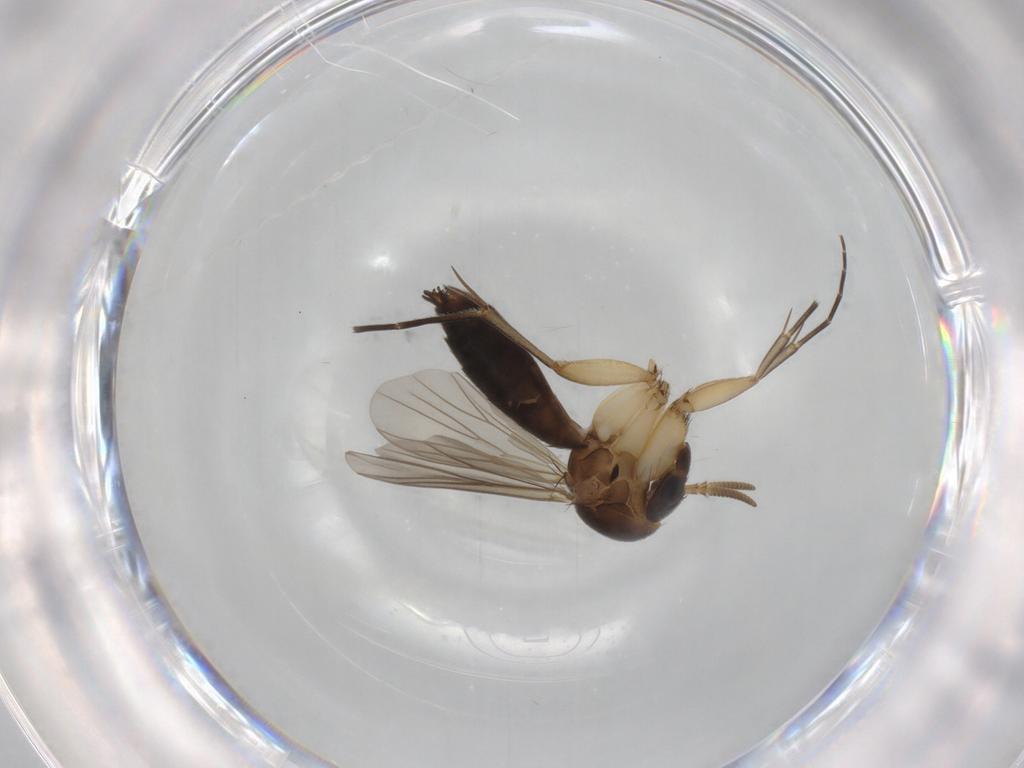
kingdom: Animalia
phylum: Arthropoda
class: Insecta
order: Diptera
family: Mycetophilidae
